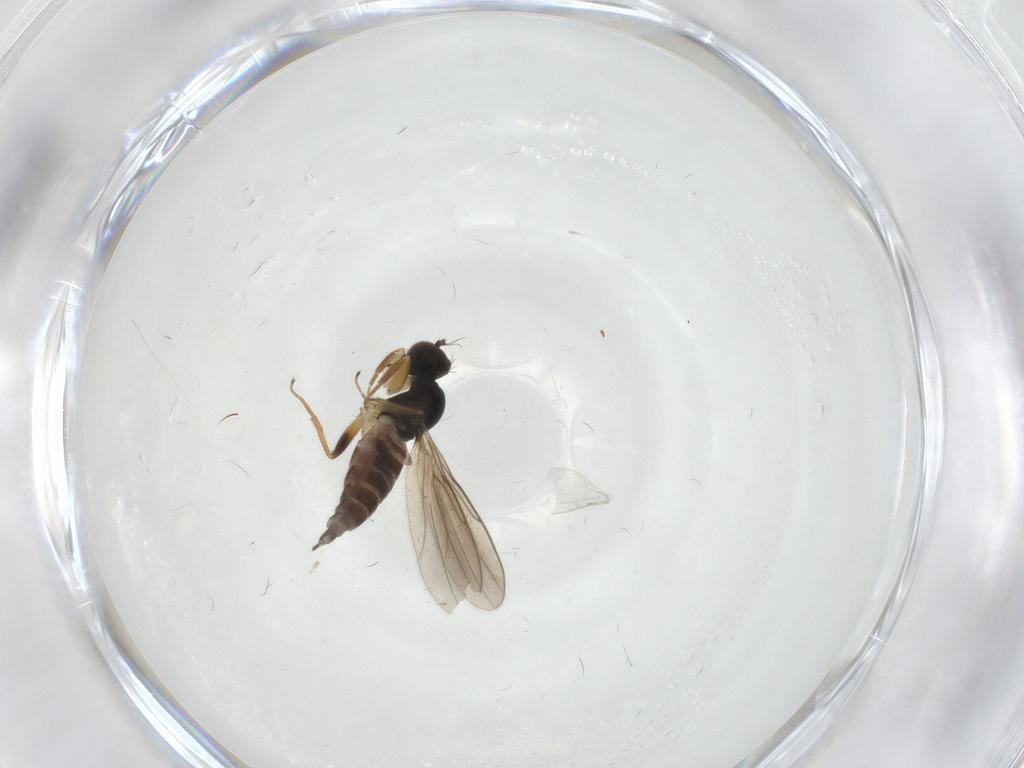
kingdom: Animalia
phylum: Arthropoda
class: Insecta
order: Diptera
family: Hybotidae
